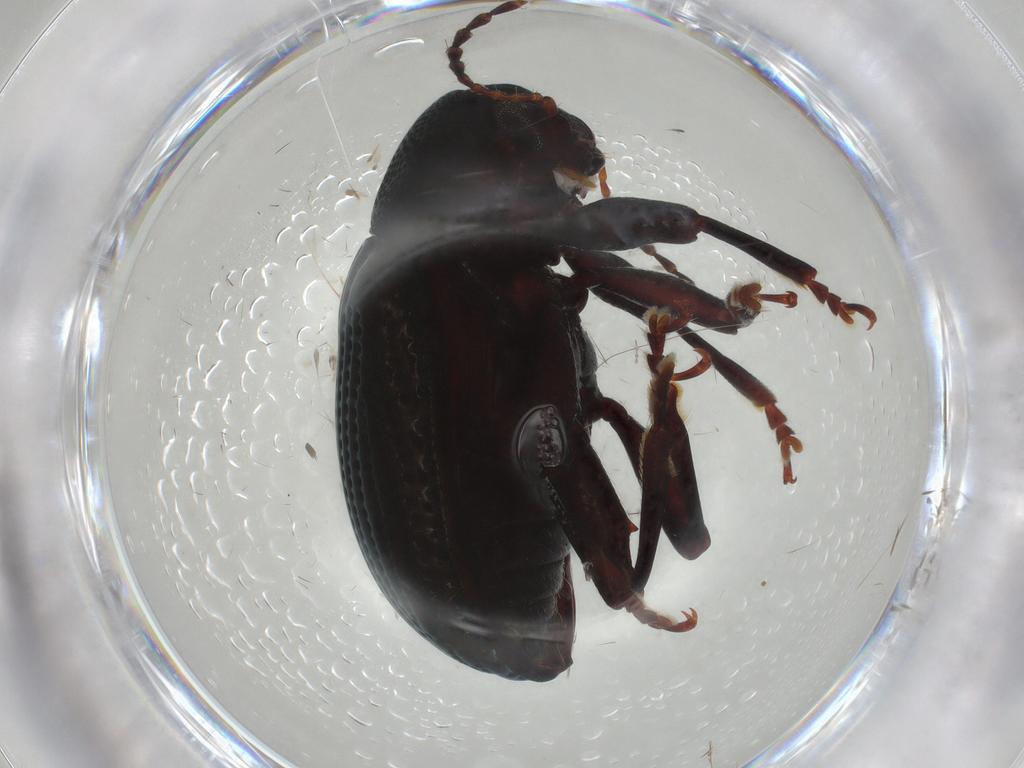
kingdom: Animalia
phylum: Arthropoda
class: Insecta
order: Coleoptera
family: Chrysomelidae
